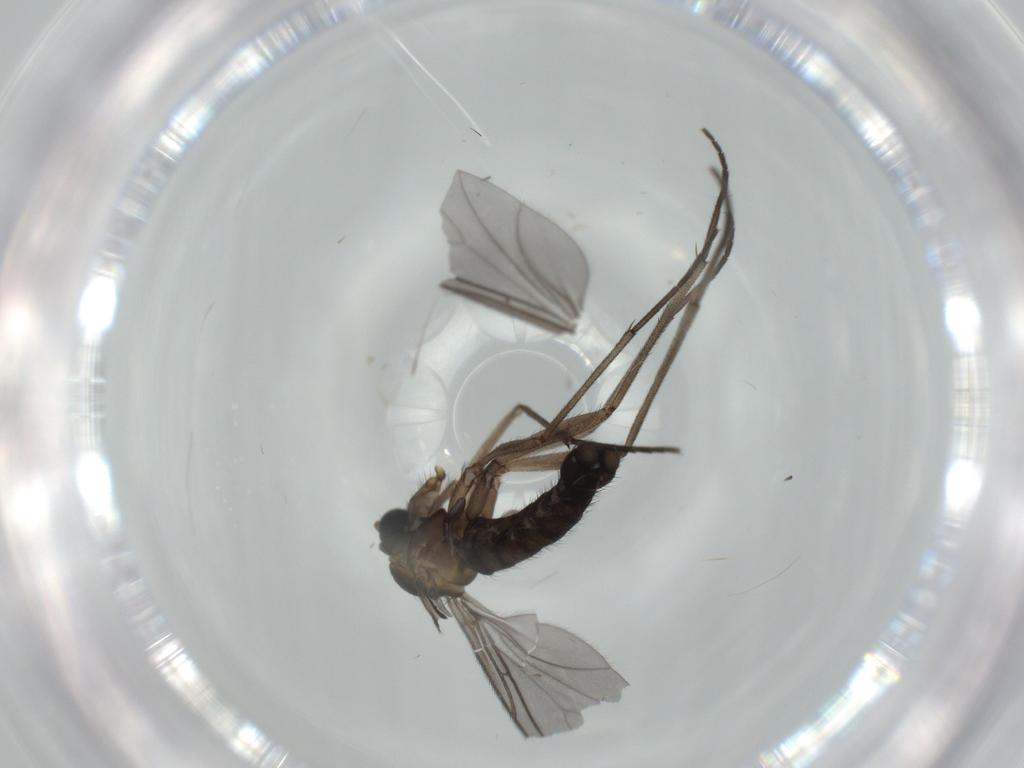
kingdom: Animalia
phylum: Arthropoda
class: Insecta
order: Diptera
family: Sciaridae
